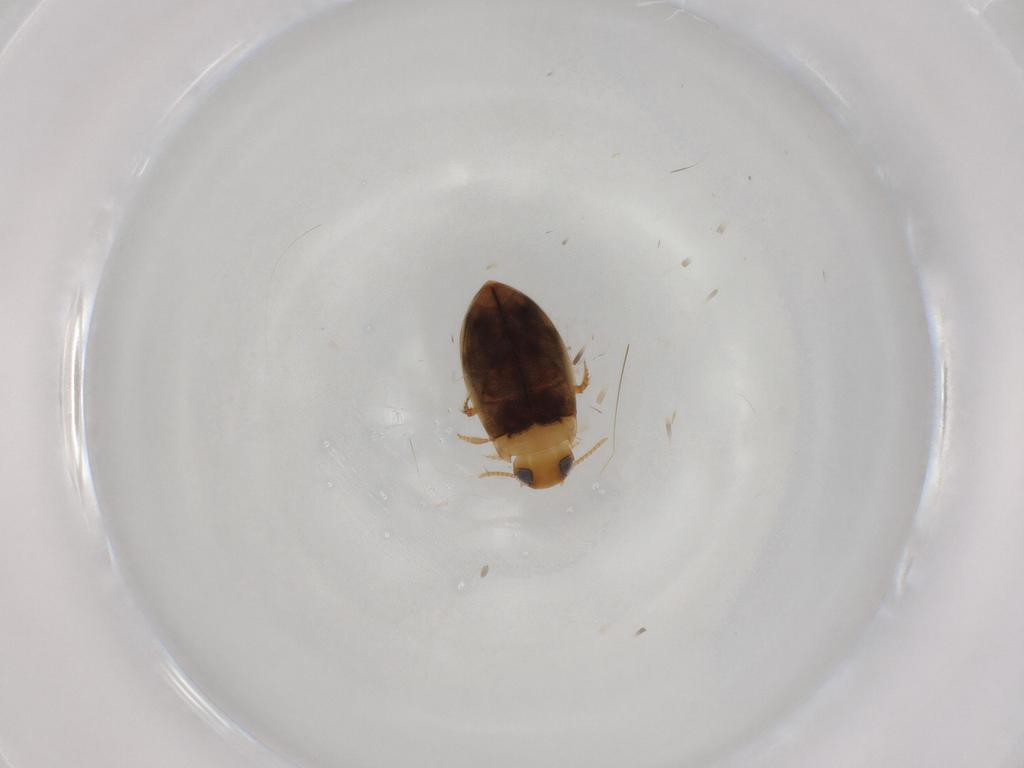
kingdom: Animalia
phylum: Arthropoda
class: Insecta
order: Coleoptera
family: Dytiscidae
